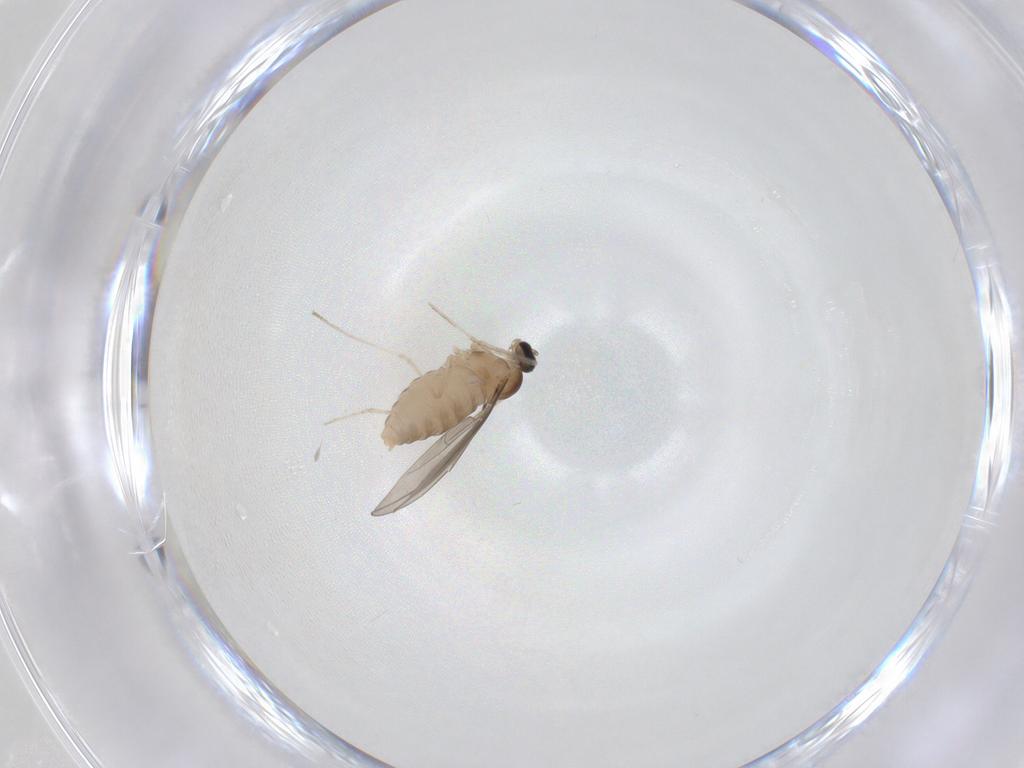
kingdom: Animalia
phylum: Arthropoda
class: Insecta
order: Diptera
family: Cecidomyiidae
